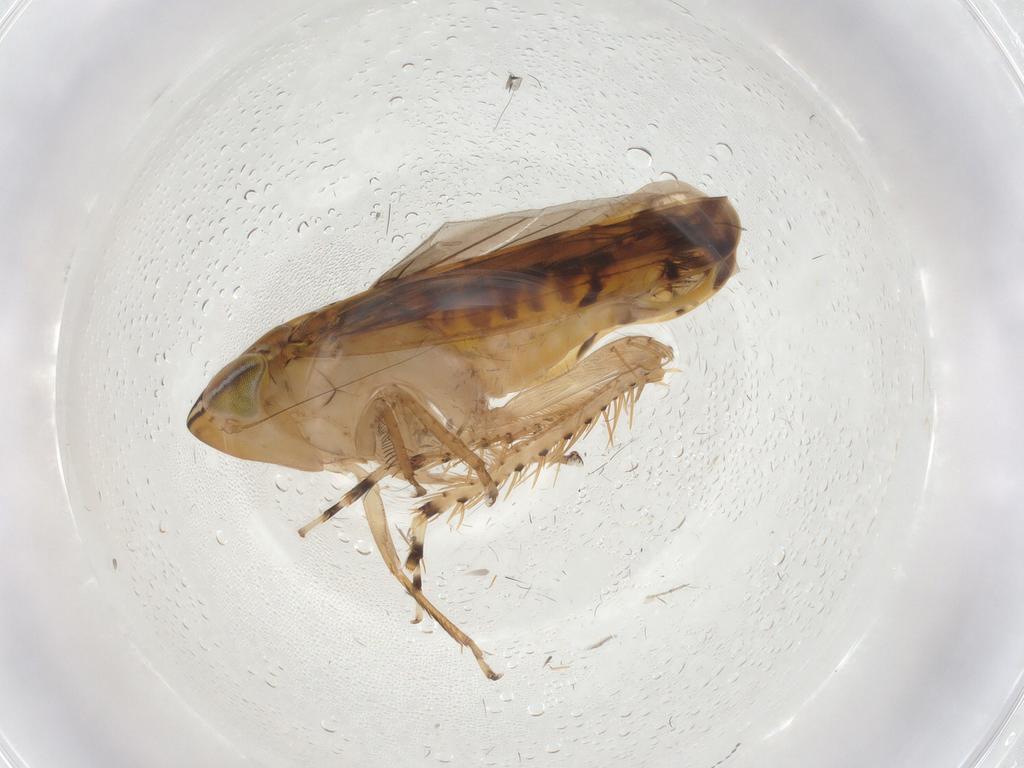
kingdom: Animalia
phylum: Arthropoda
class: Insecta
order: Hemiptera
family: Cicadellidae
